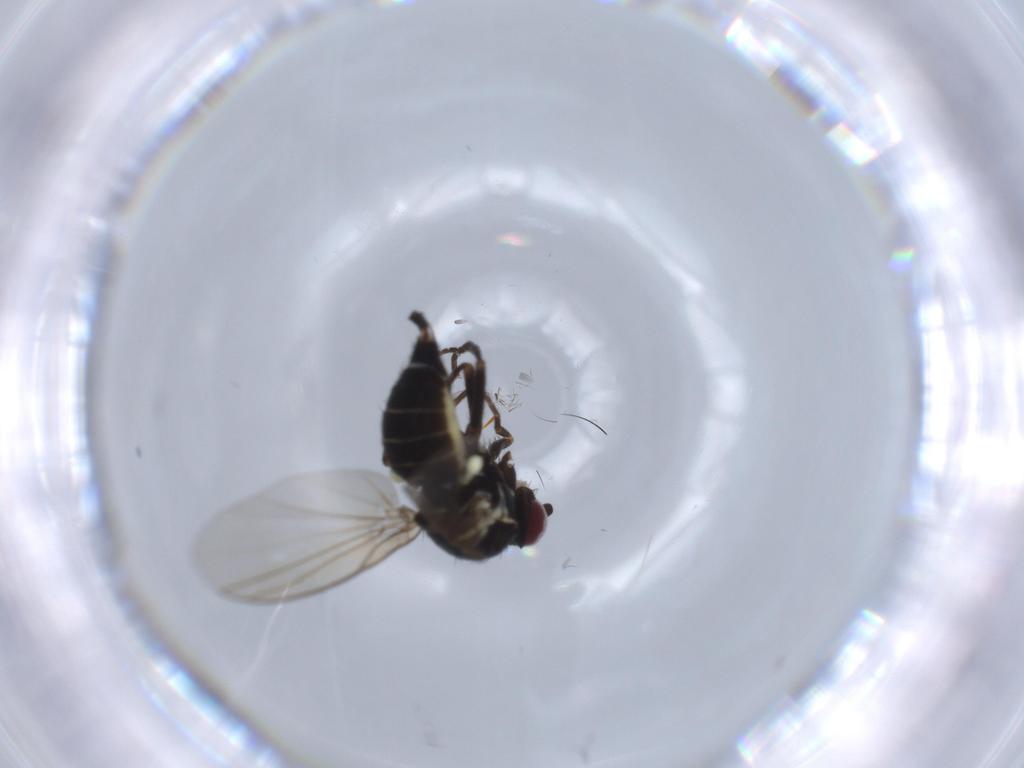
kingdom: Animalia
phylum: Arthropoda
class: Insecta
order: Diptera
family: Agromyzidae
